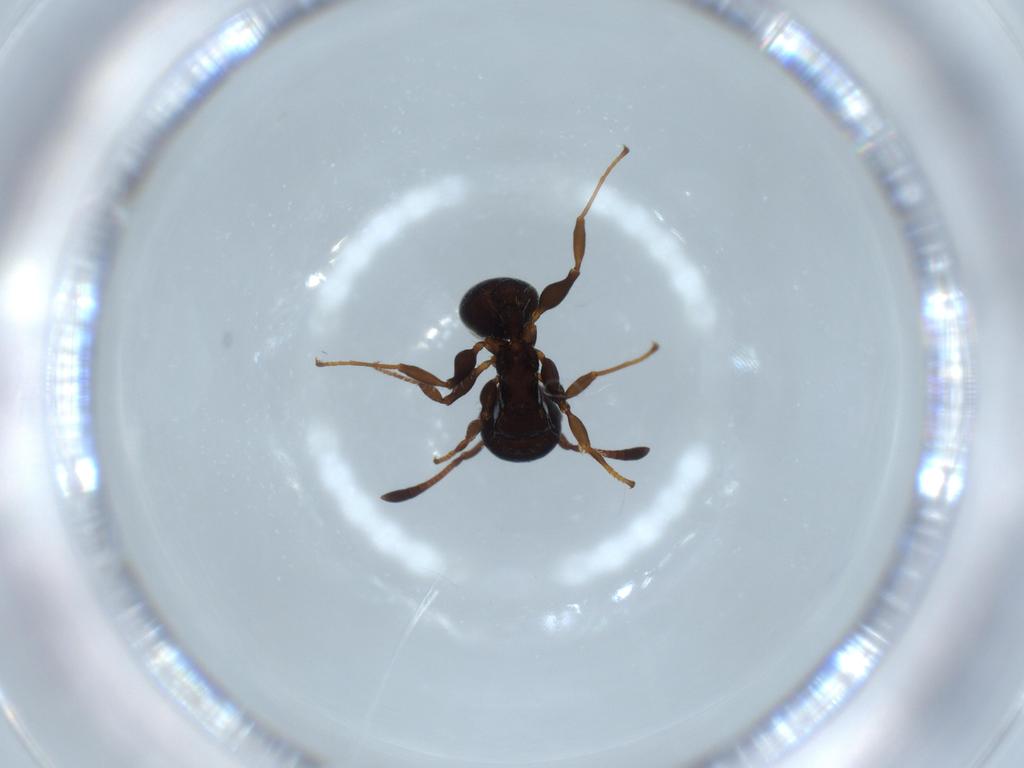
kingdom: Animalia
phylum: Arthropoda
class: Insecta
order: Hymenoptera
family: Formicidae
